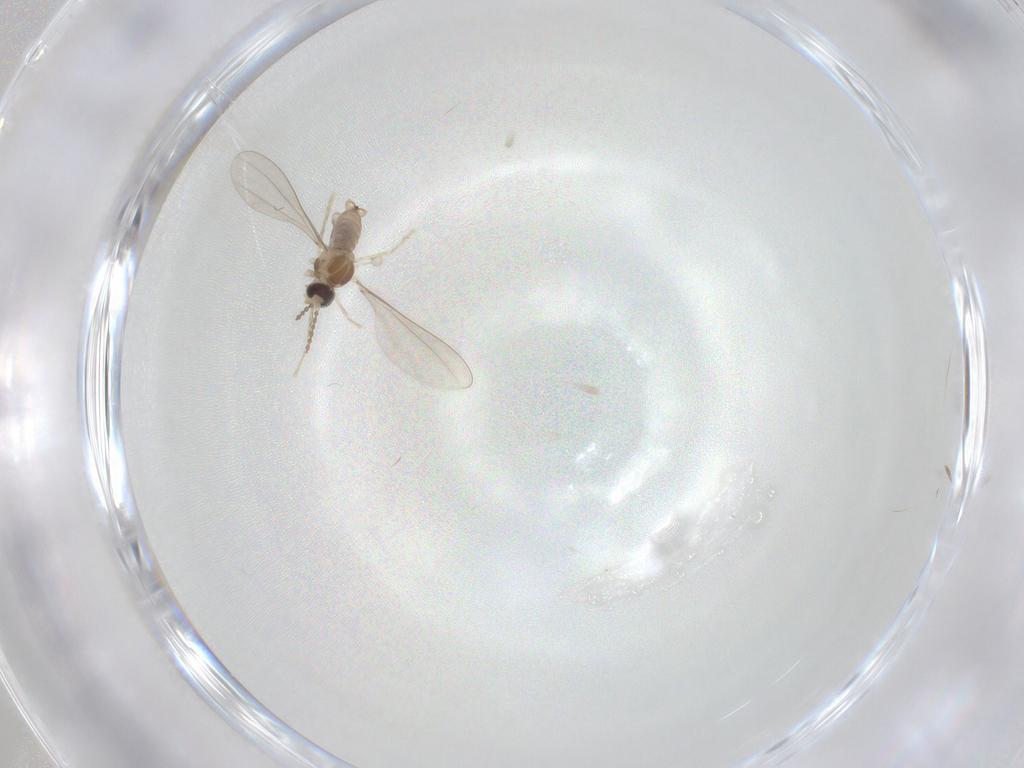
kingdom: Animalia
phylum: Arthropoda
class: Insecta
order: Diptera
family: Cecidomyiidae
